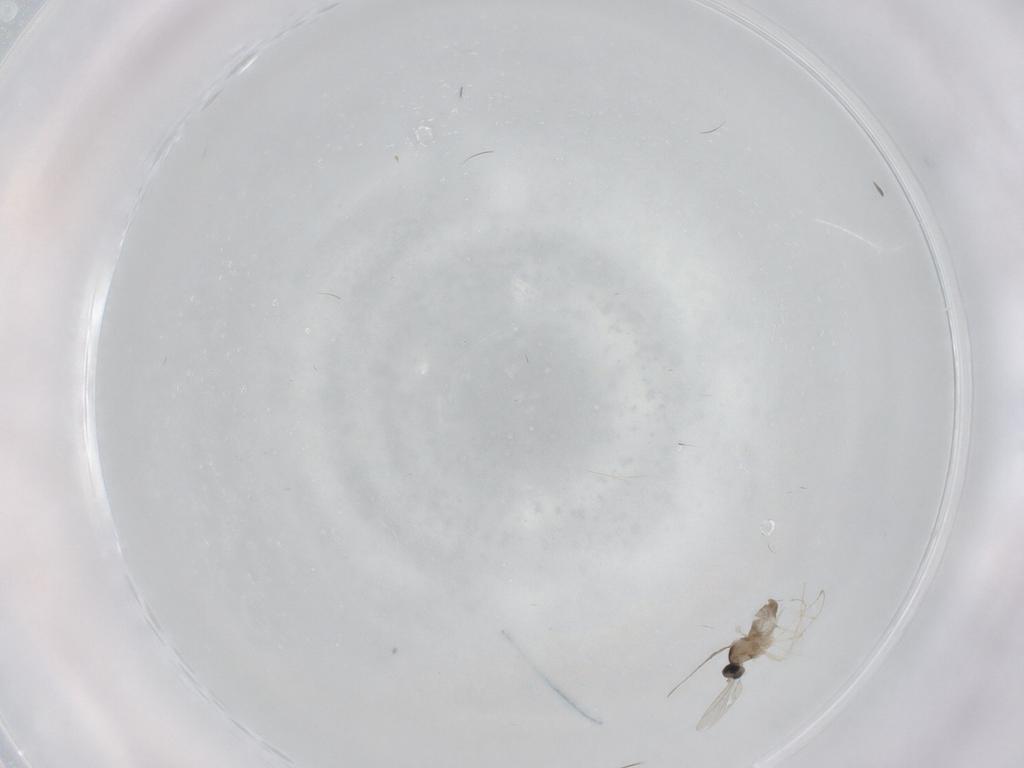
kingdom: Animalia
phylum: Arthropoda
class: Insecta
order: Diptera
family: Cecidomyiidae
